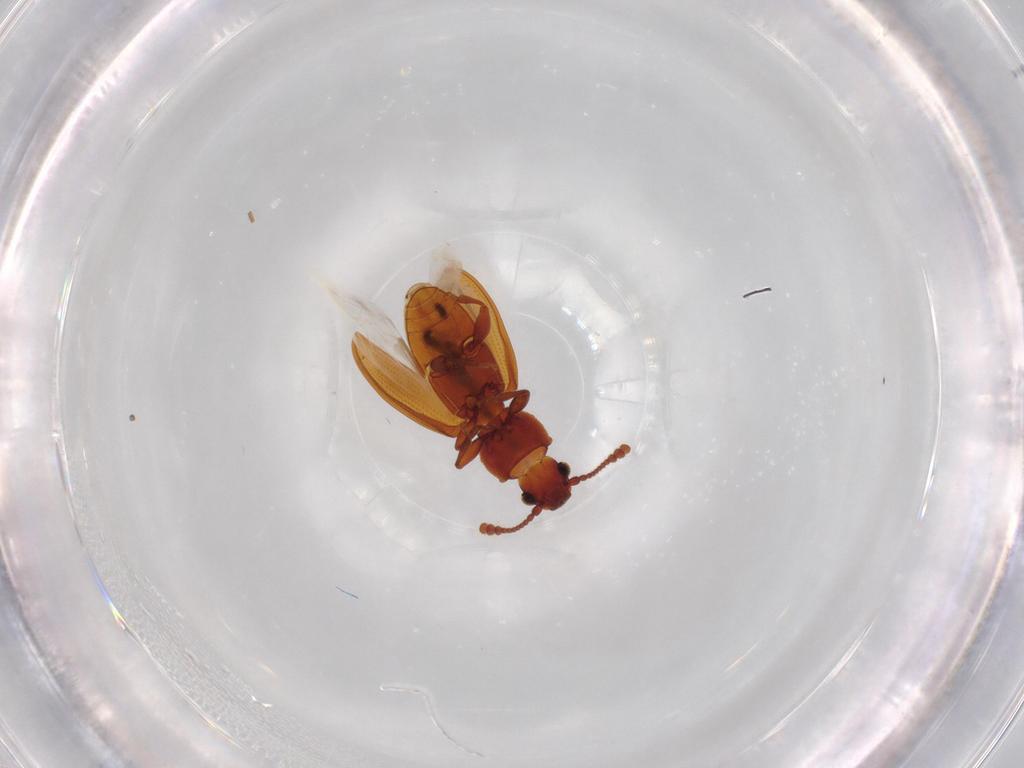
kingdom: Animalia
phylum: Arthropoda
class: Insecta
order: Coleoptera
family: Silvanidae
